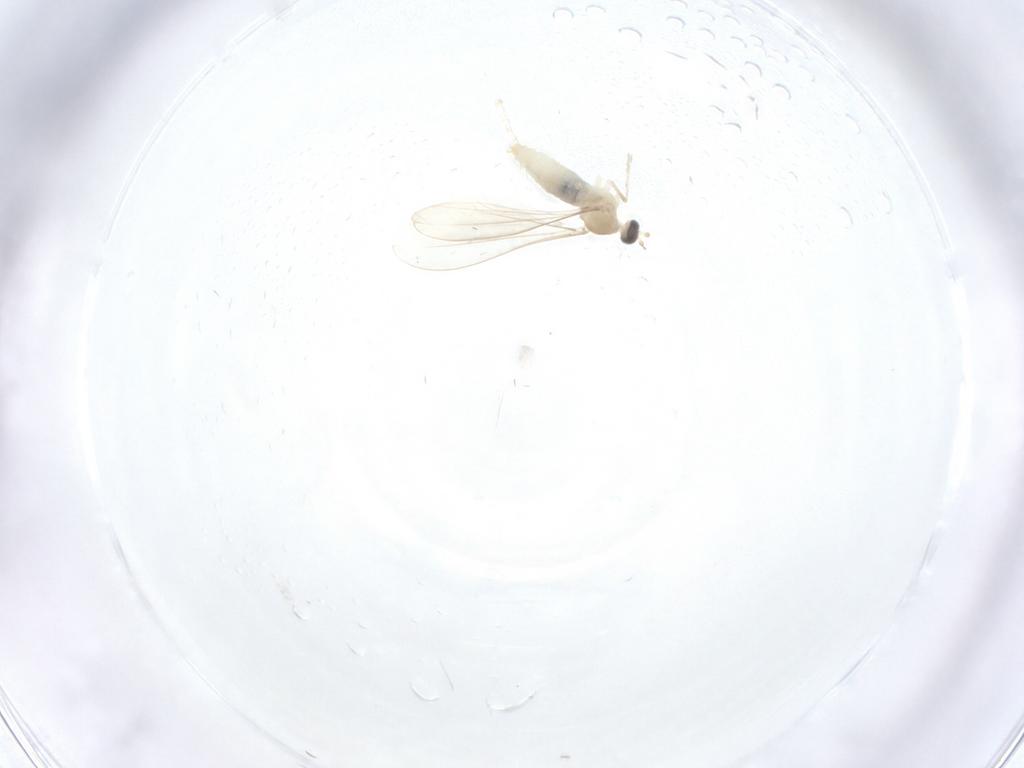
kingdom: Animalia
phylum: Arthropoda
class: Insecta
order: Diptera
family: Cecidomyiidae
